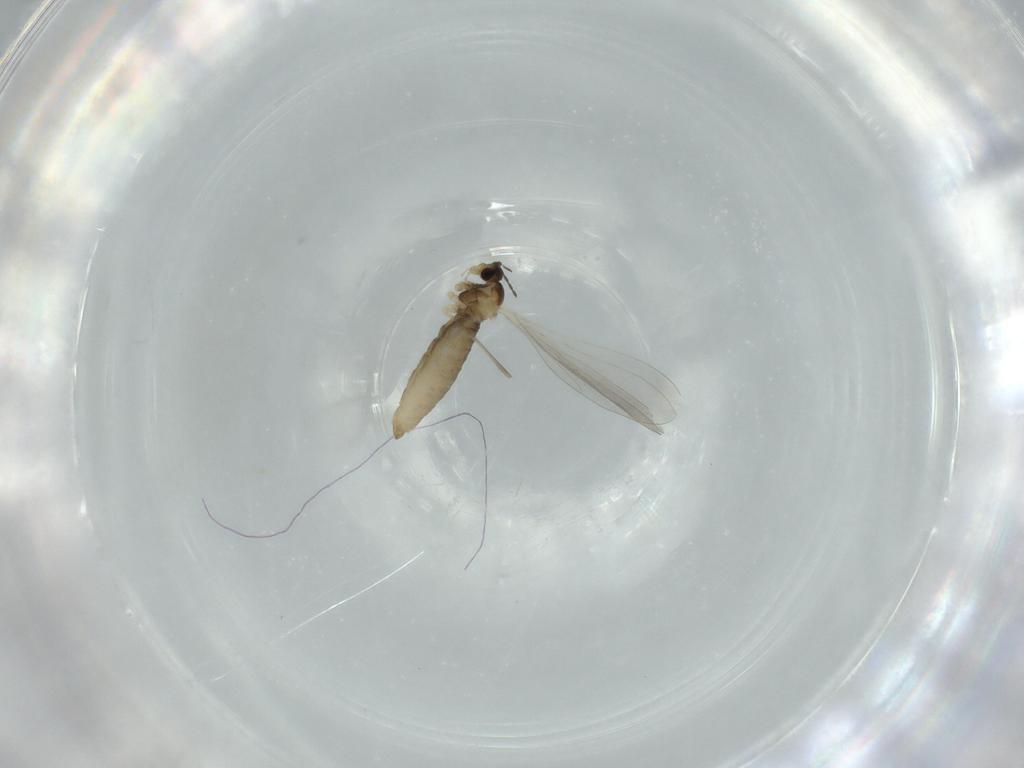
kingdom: Animalia
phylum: Arthropoda
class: Insecta
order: Diptera
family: Cecidomyiidae
